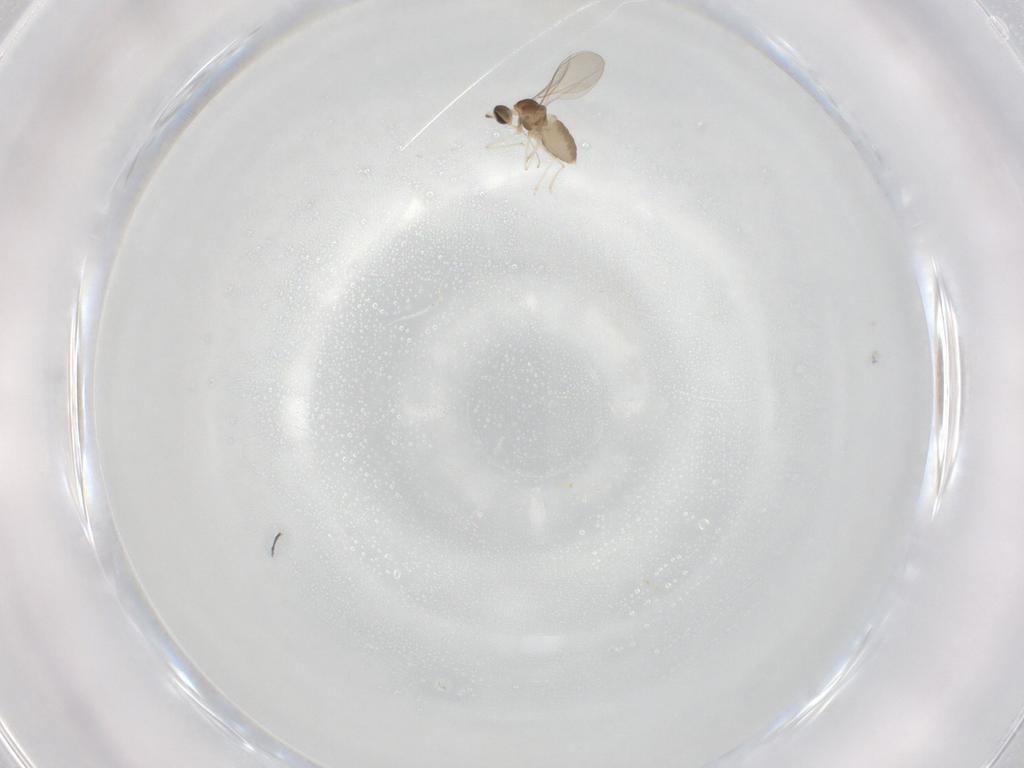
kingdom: Animalia
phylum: Arthropoda
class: Insecta
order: Diptera
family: Cecidomyiidae
